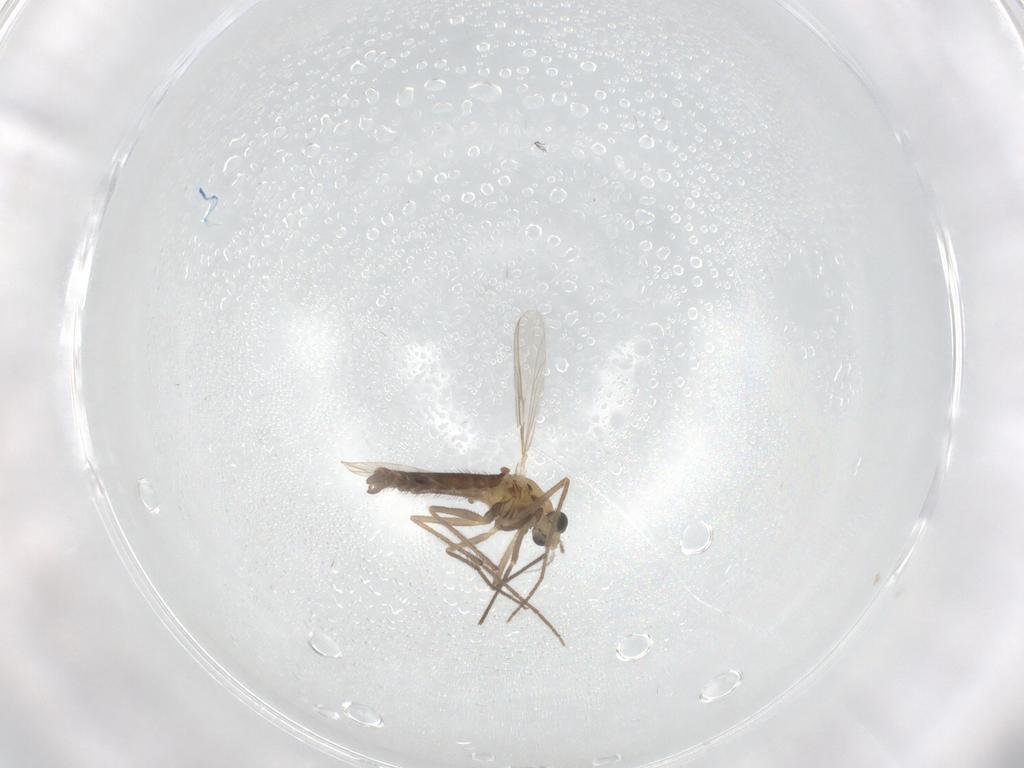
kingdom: Animalia
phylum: Arthropoda
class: Insecta
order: Diptera
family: Chironomidae
